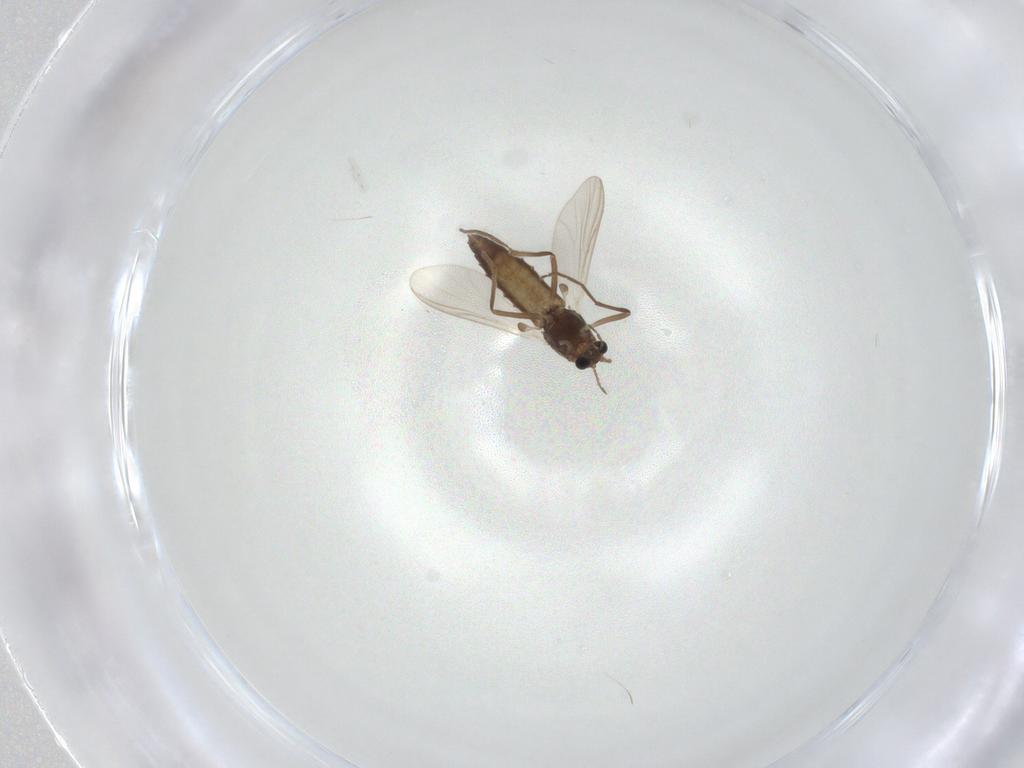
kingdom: Animalia
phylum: Arthropoda
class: Insecta
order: Diptera
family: Chironomidae
